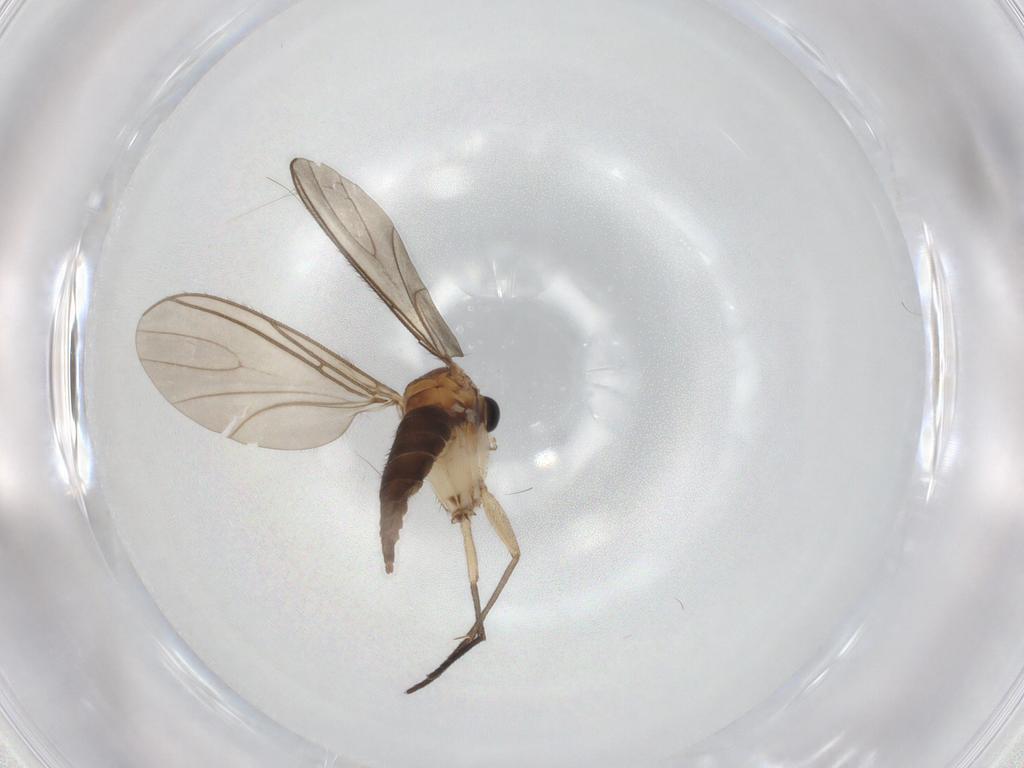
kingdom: Animalia
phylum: Arthropoda
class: Insecta
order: Diptera
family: Sciaridae
